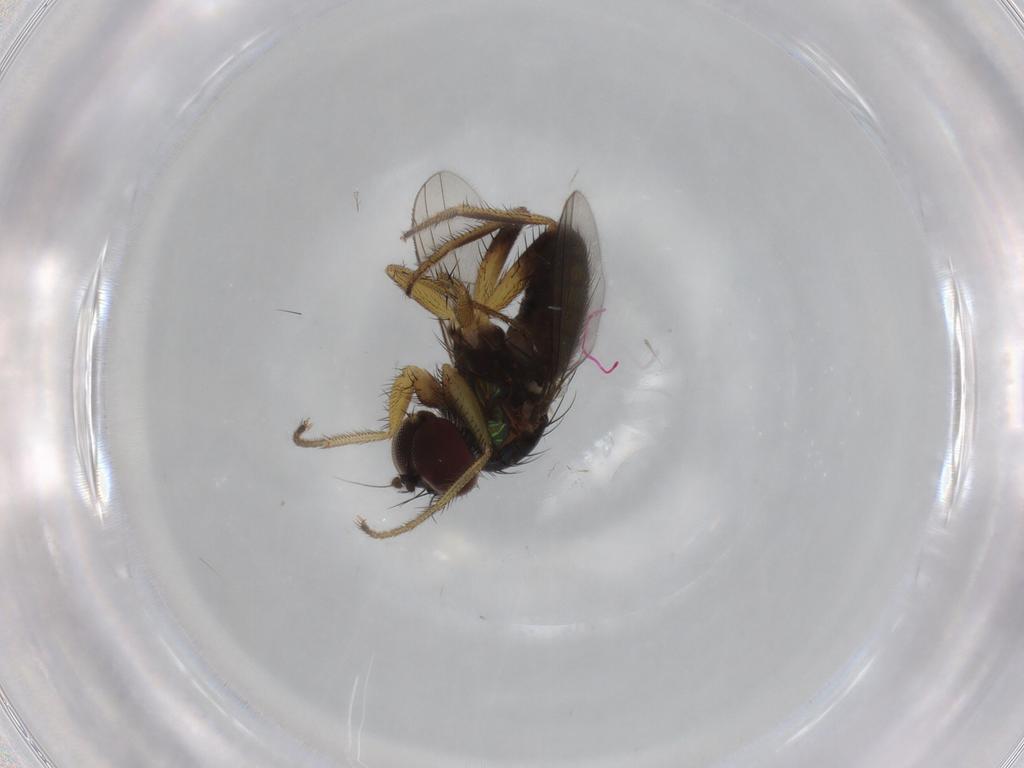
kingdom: Animalia
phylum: Arthropoda
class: Insecta
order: Diptera
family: Dolichopodidae
